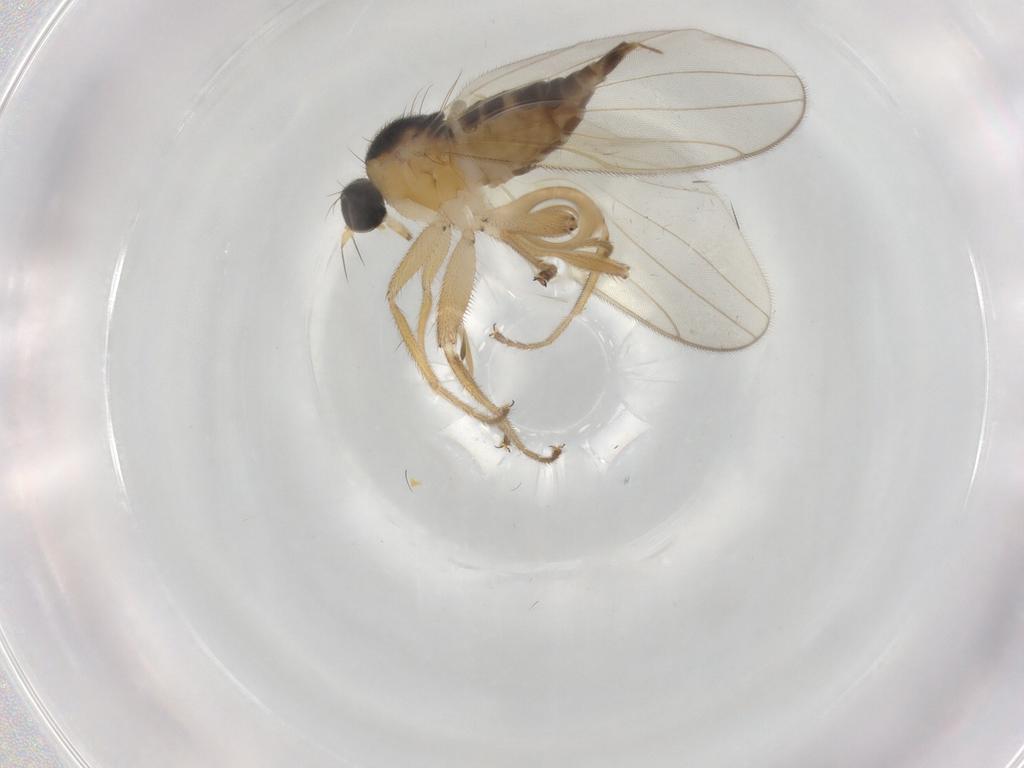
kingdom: Animalia
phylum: Arthropoda
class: Insecta
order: Diptera
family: Hybotidae
